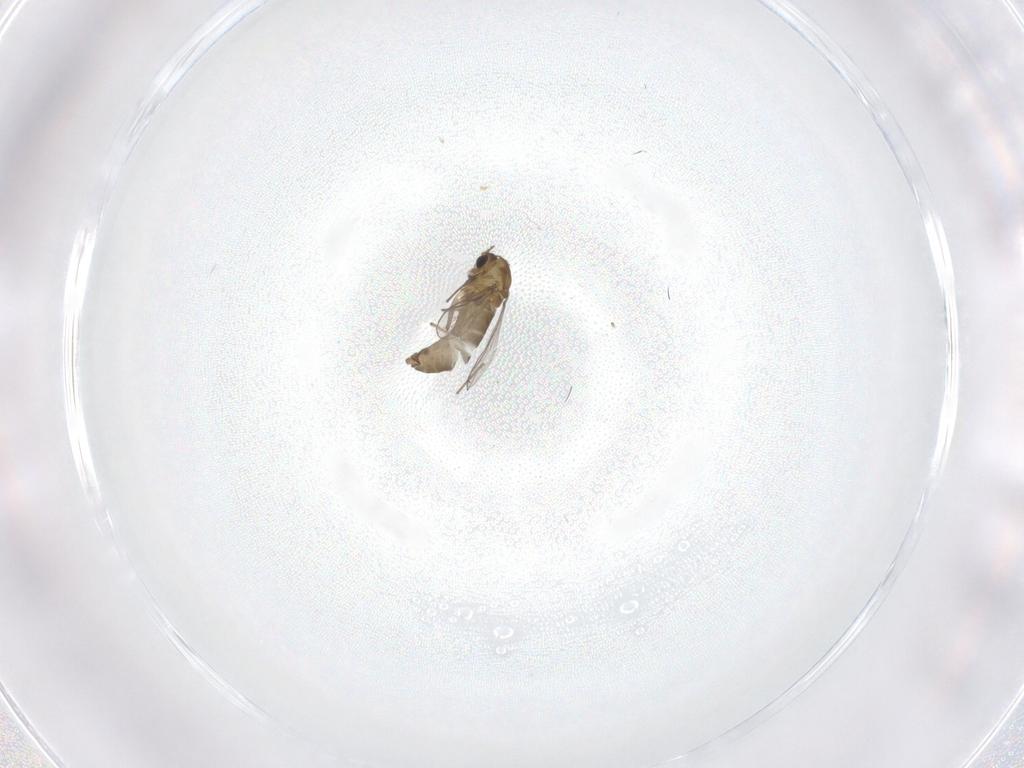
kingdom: Animalia
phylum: Arthropoda
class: Insecta
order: Diptera
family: Chironomidae
